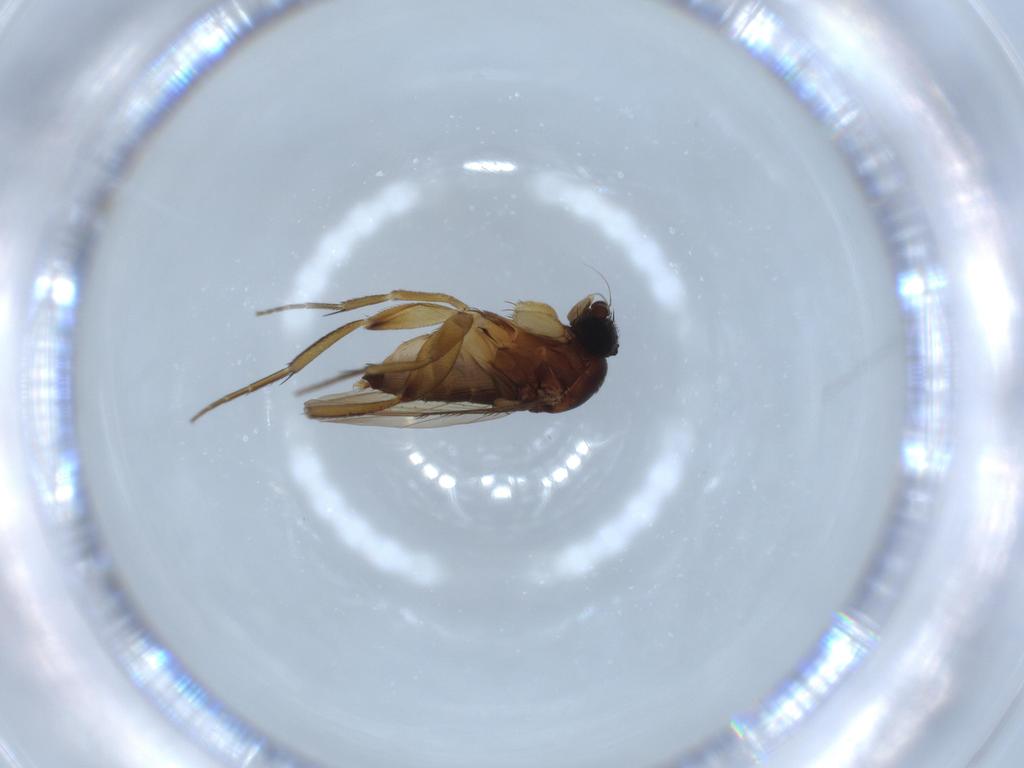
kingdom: Animalia
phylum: Arthropoda
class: Insecta
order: Diptera
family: Phoridae
